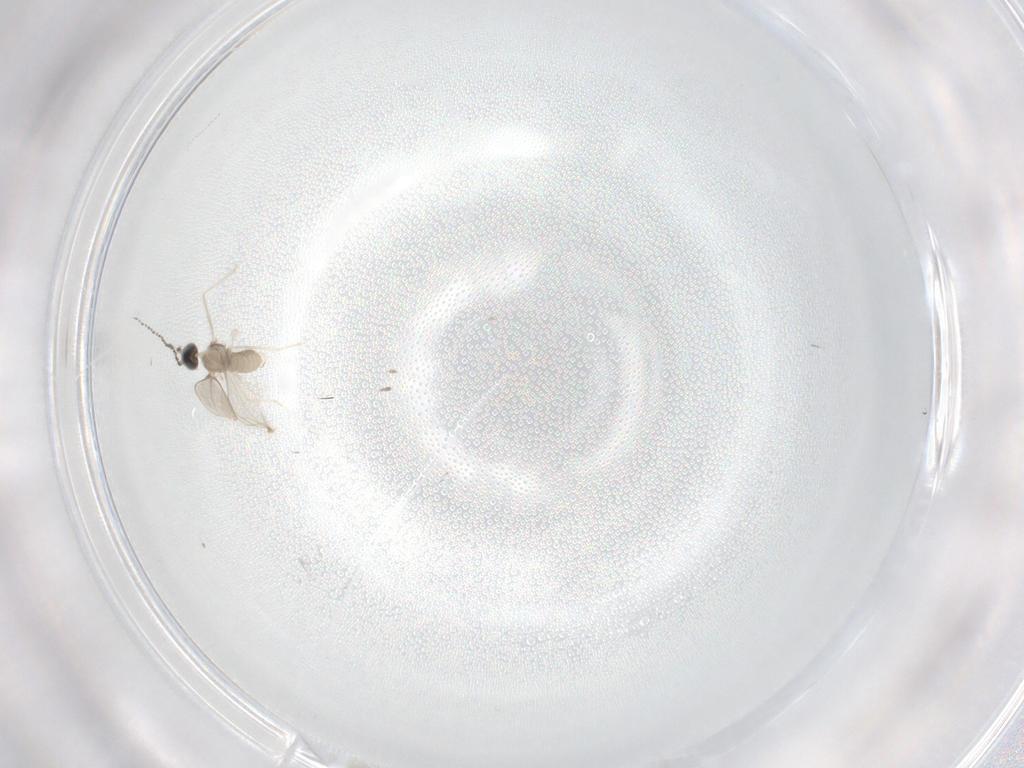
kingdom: Animalia
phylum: Arthropoda
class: Insecta
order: Diptera
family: Cecidomyiidae
